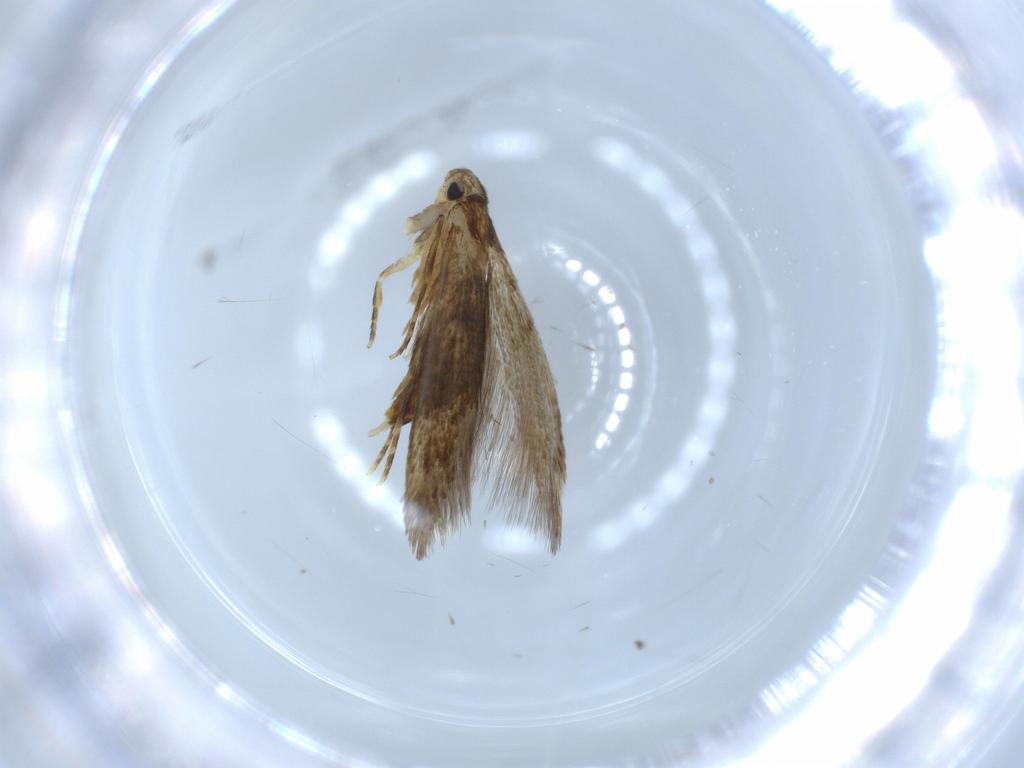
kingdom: Animalia
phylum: Arthropoda
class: Insecta
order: Lepidoptera
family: Tineidae
